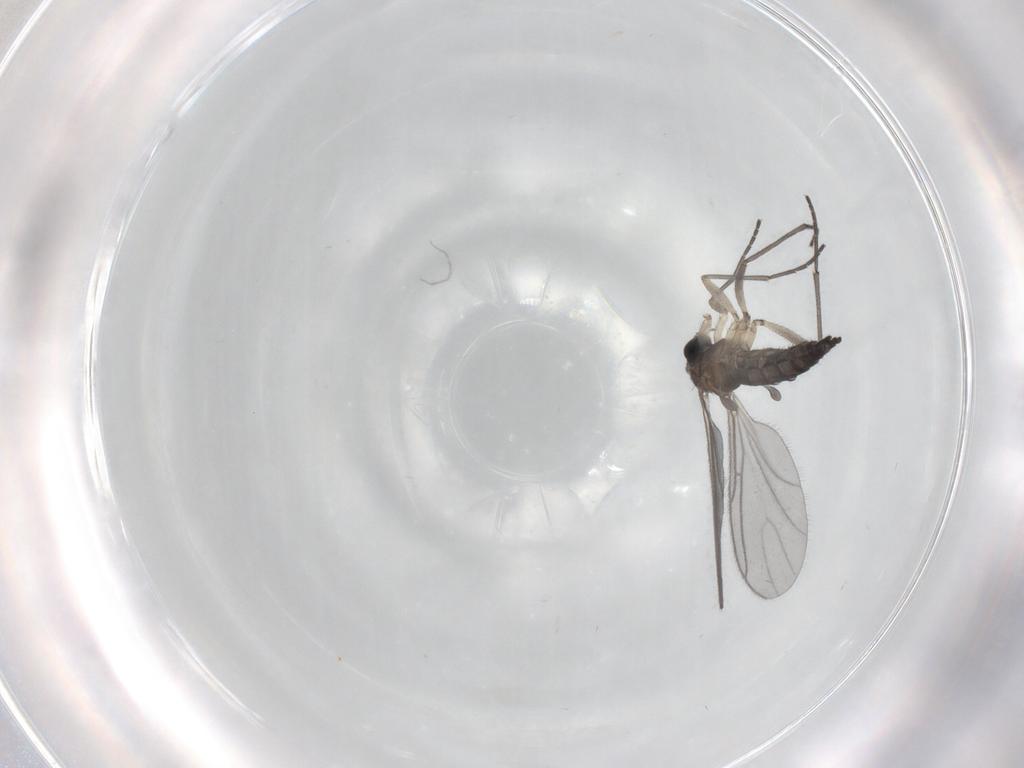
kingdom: Animalia
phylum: Arthropoda
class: Insecta
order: Diptera
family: Sciaridae
